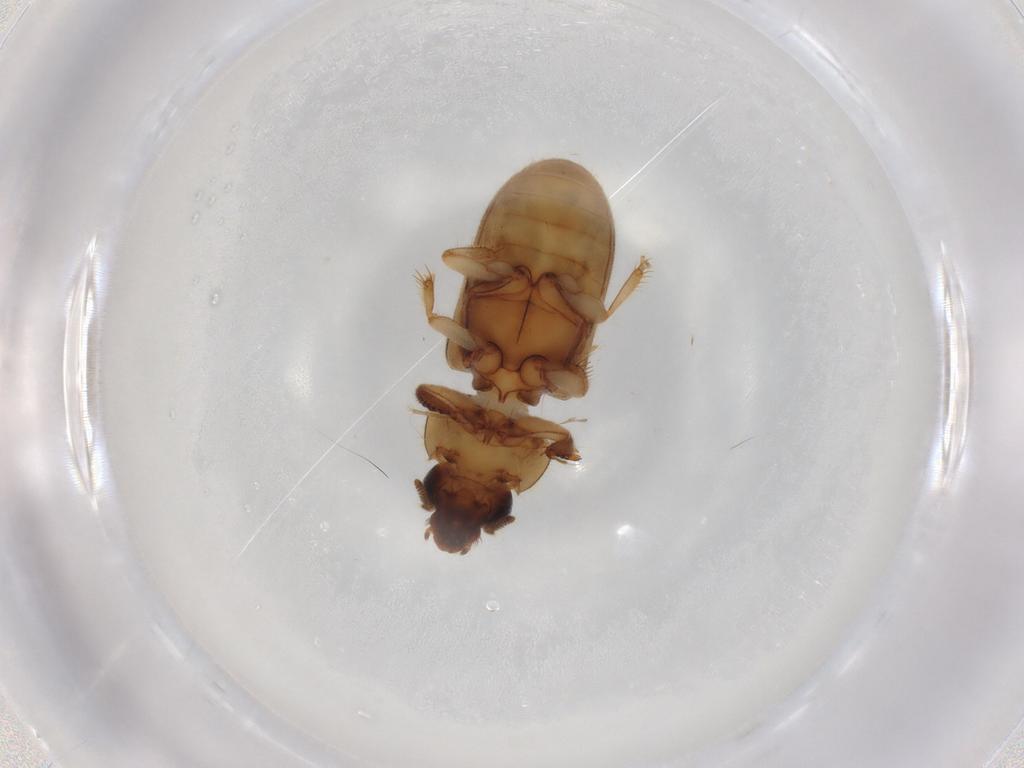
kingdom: Animalia
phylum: Arthropoda
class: Insecta
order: Coleoptera
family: Heteroceridae
